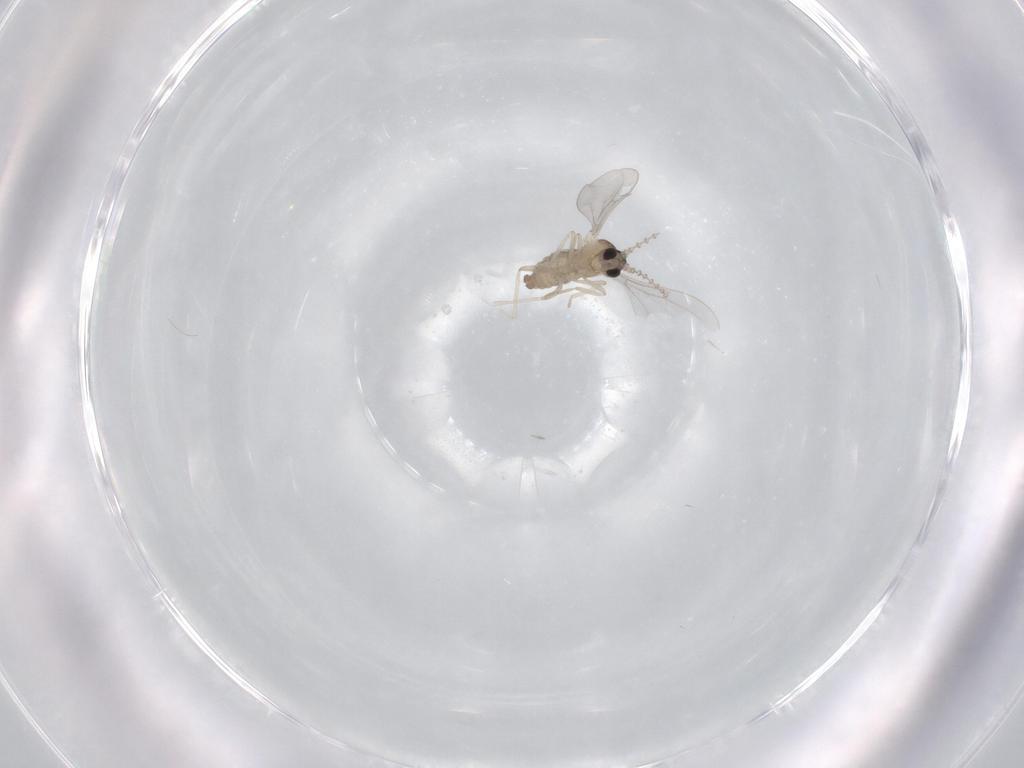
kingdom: Animalia
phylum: Arthropoda
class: Insecta
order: Diptera
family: Cecidomyiidae
